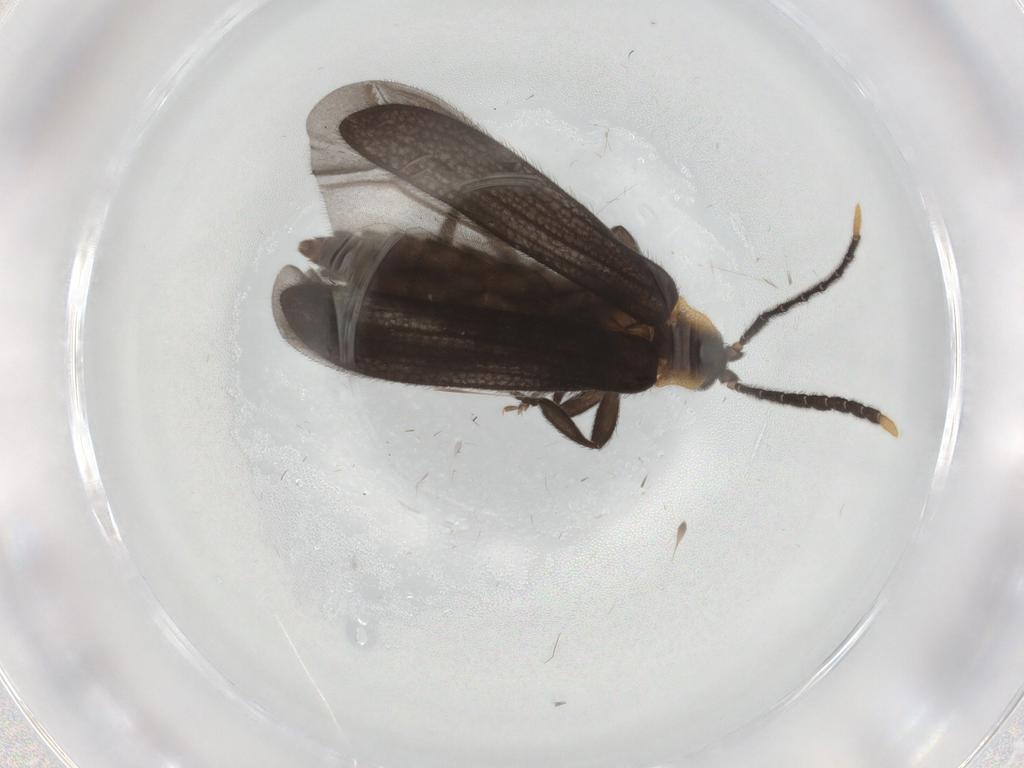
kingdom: Animalia
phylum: Arthropoda
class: Insecta
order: Coleoptera
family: Lycidae
